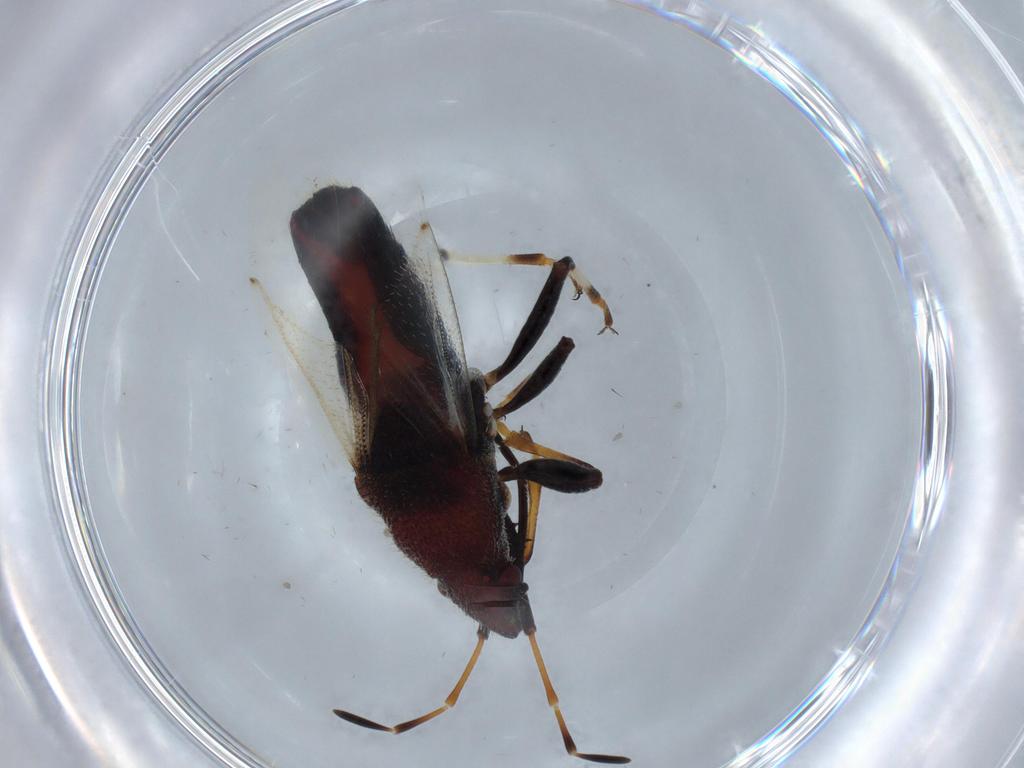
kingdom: Animalia
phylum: Arthropoda
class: Insecta
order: Hemiptera
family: Oxycarenidae
